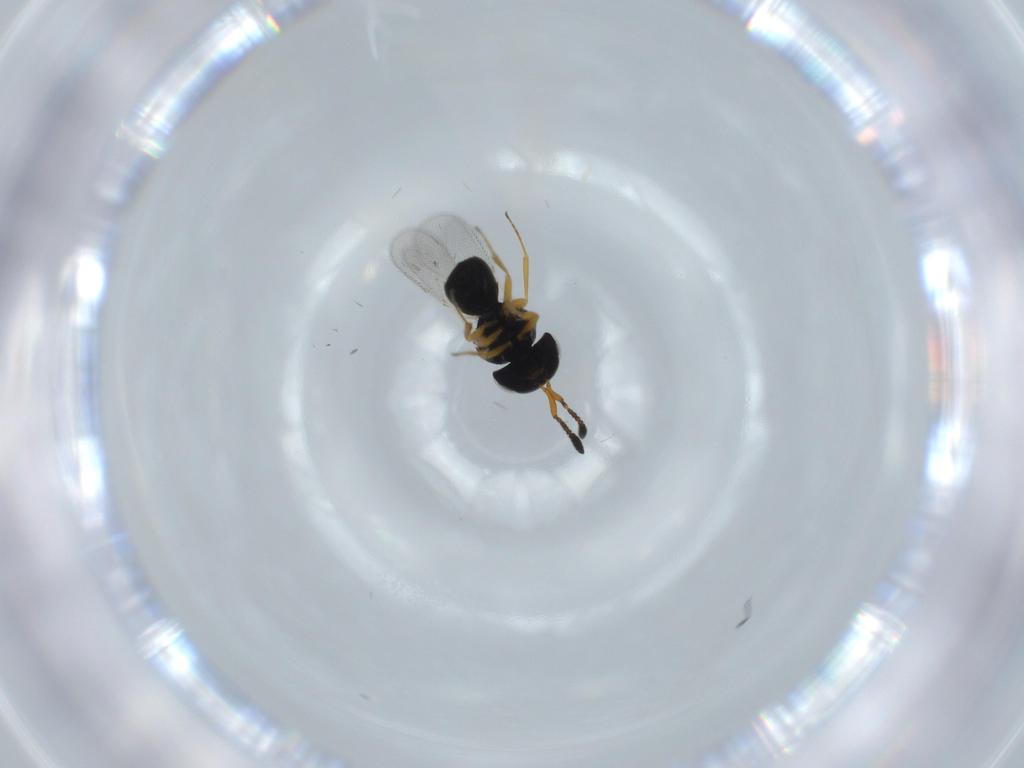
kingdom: Animalia
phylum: Arthropoda
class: Insecta
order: Hymenoptera
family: Scelionidae
